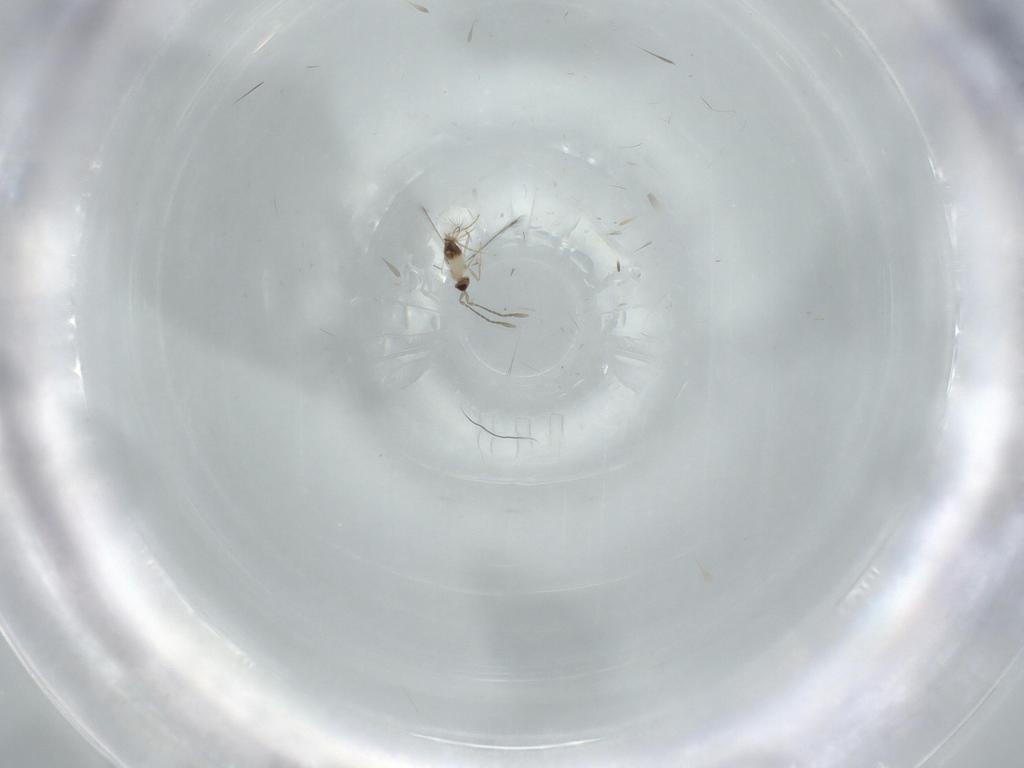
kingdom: Animalia
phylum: Arthropoda
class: Insecta
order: Hymenoptera
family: Mymaridae
